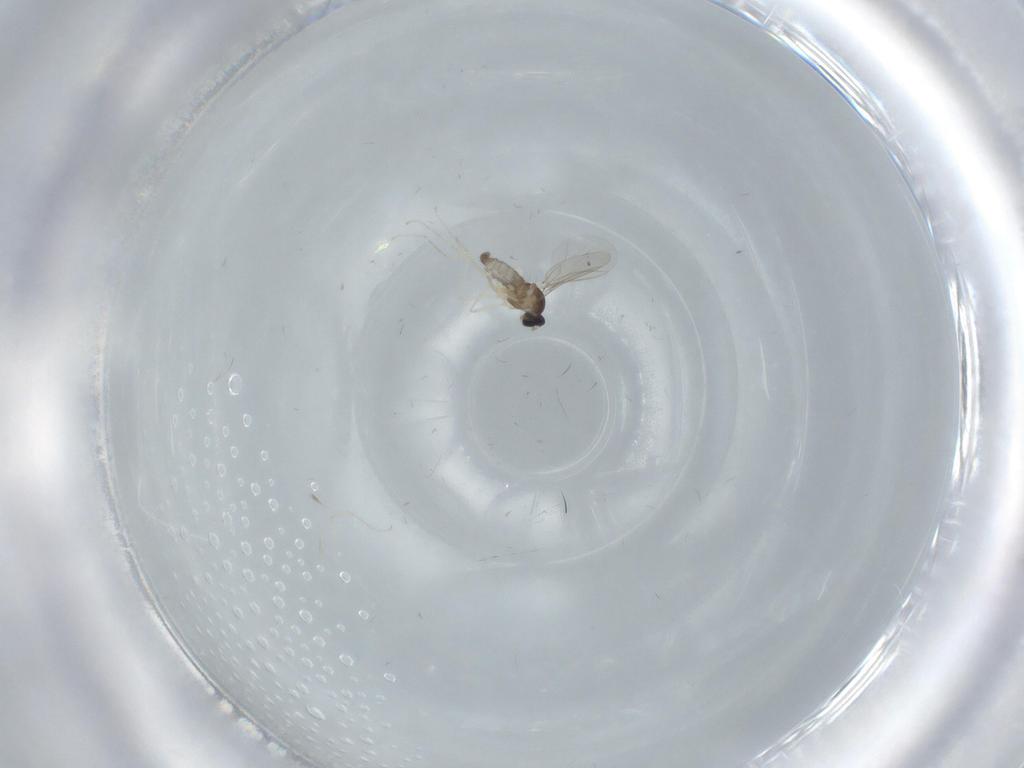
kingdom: Animalia
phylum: Arthropoda
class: Insecta
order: Diptera
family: Cecidomyiidae
